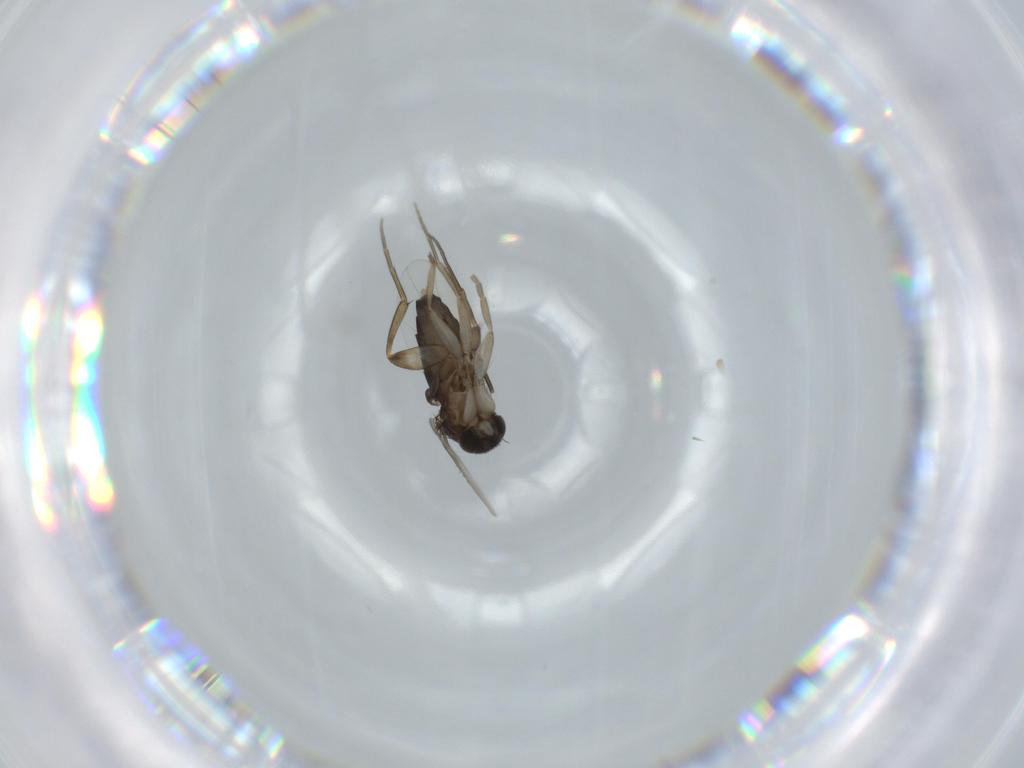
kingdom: Animalia
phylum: Arthropoda
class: Insecta
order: Diptera
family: Phoridae
